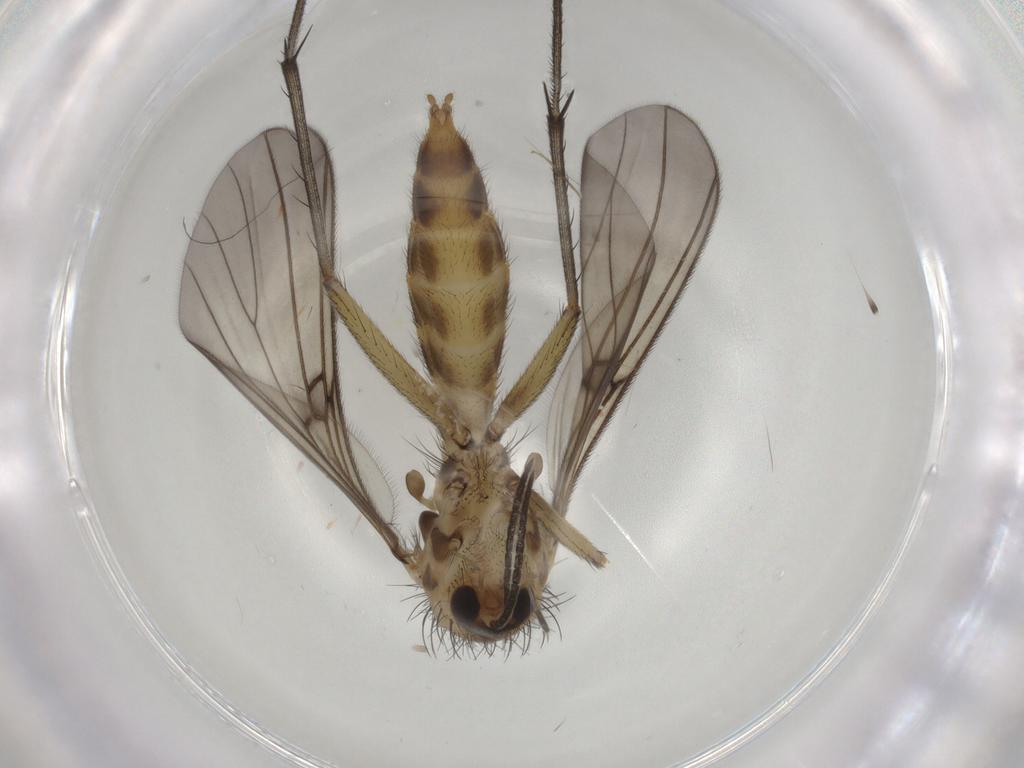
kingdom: Animalia
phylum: Arthropoda
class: Insecta
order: Diptera
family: Mycetophilidae
